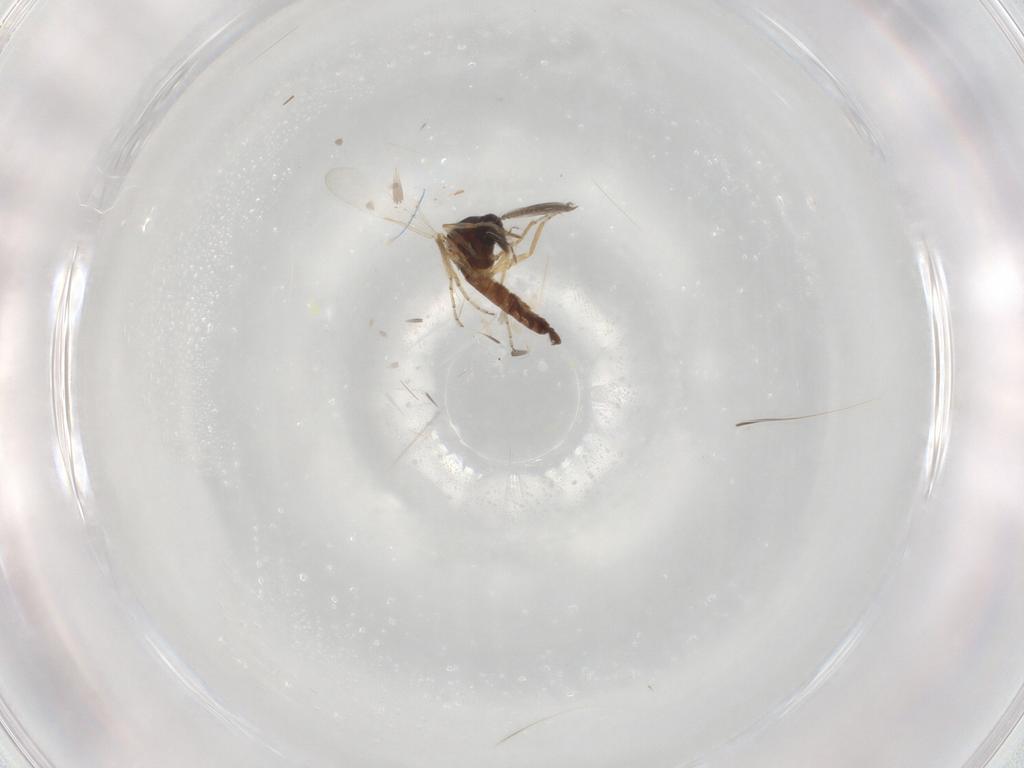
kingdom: Animalia
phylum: Arthropoda
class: Insecta
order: Diptera
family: Ceratopogonidae
